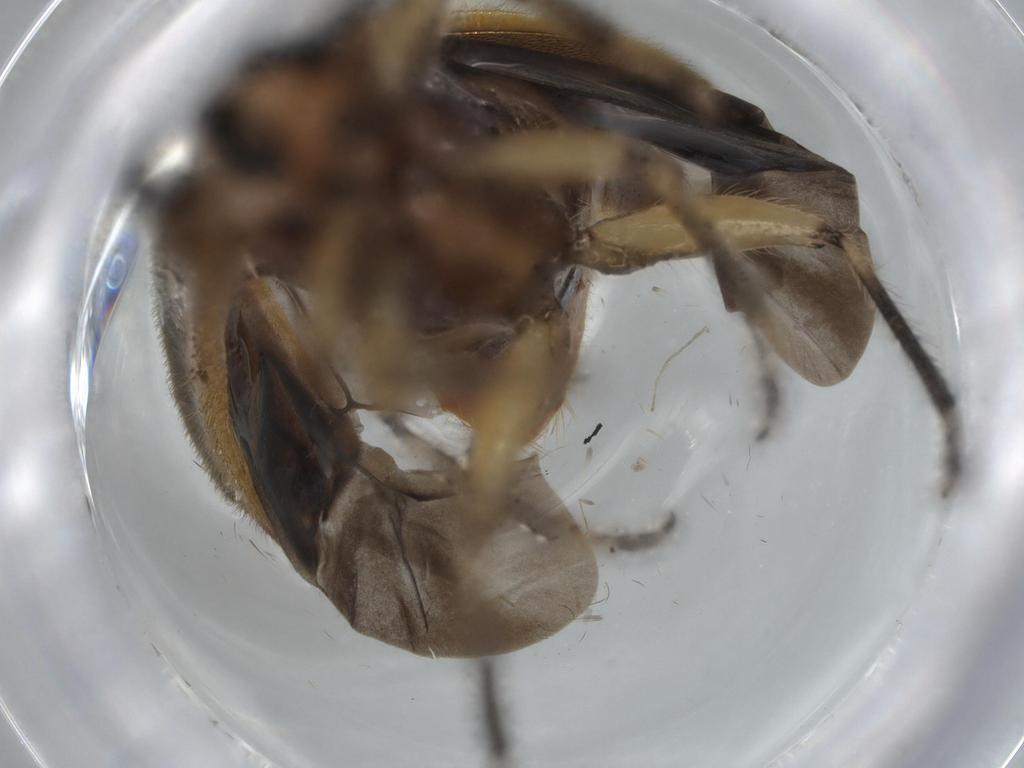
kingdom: Animalia
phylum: Arthropoda
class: Insecta
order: Coleoptera
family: Cleridae
